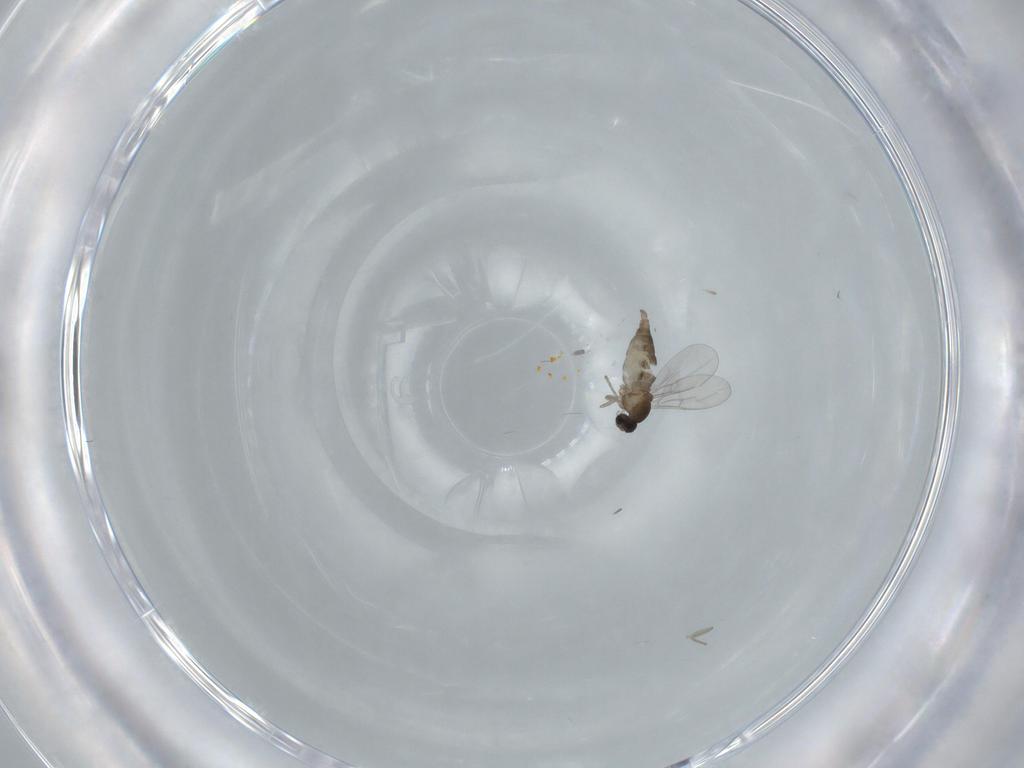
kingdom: Animalia
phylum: Arthropoda
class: Insecta
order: Diptera
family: Cecidomyiidae
